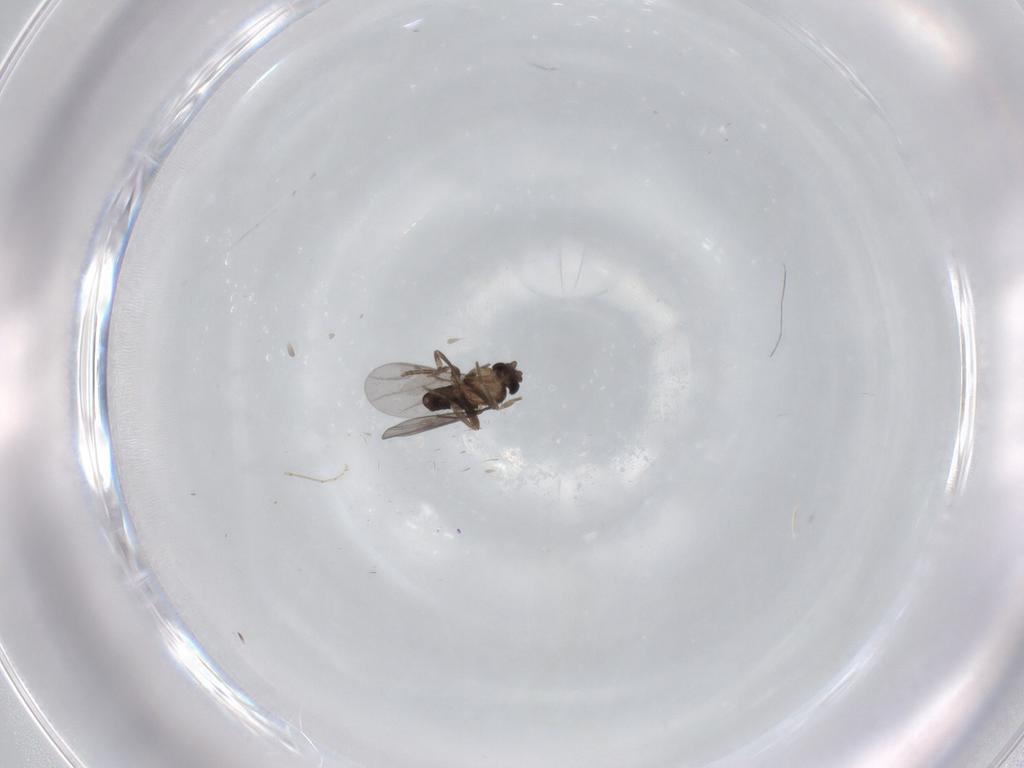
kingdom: Animalia
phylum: Arthropoda
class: Insecta
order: Diptera
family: Cecidomyiidae
